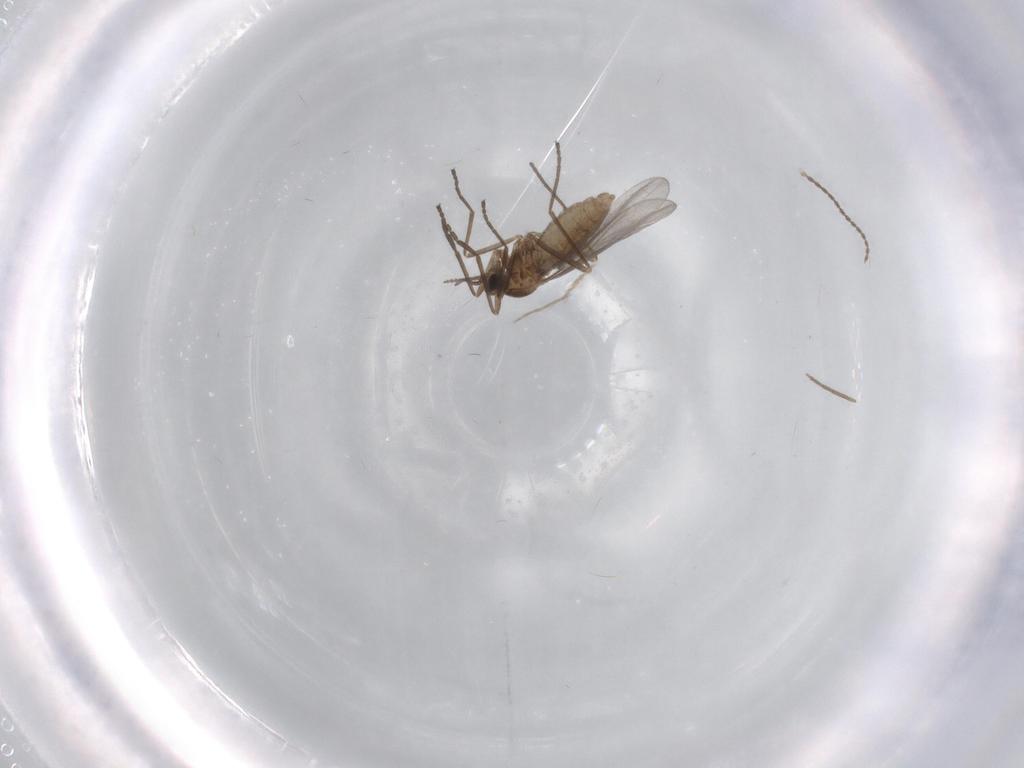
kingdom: Animalia
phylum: Arthropoda
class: Insecta
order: Diptera
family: Cecidomyiidae
